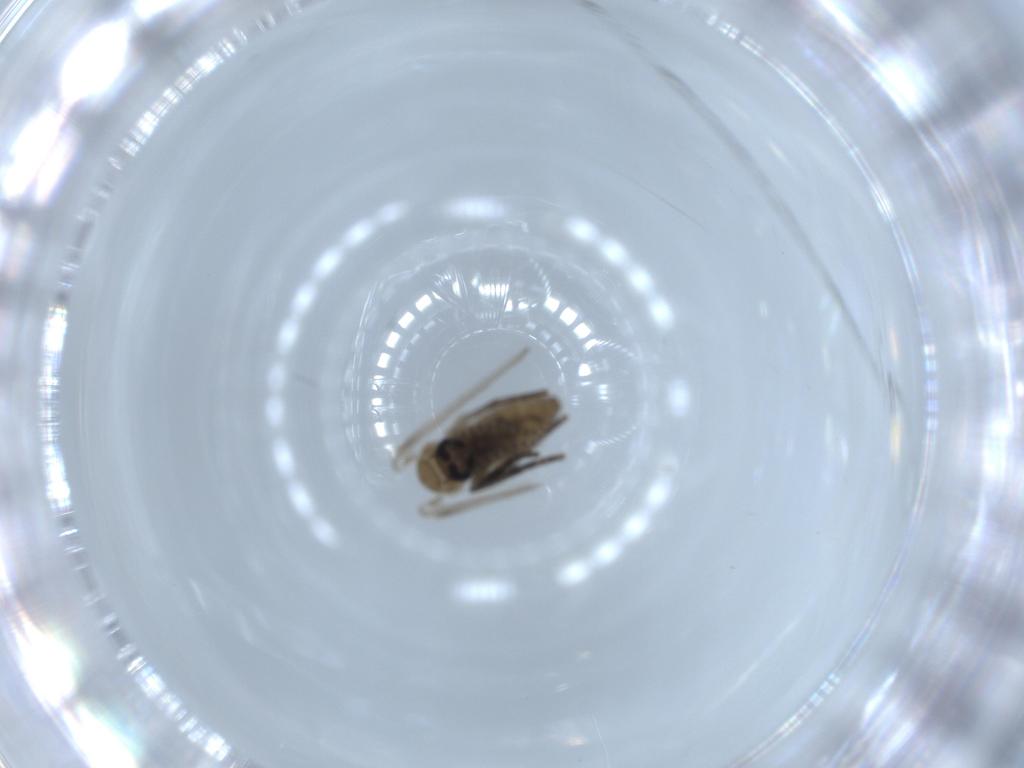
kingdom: Animalia
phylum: Arthropoda
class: Insecta
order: Diptera
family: Psychodidae
